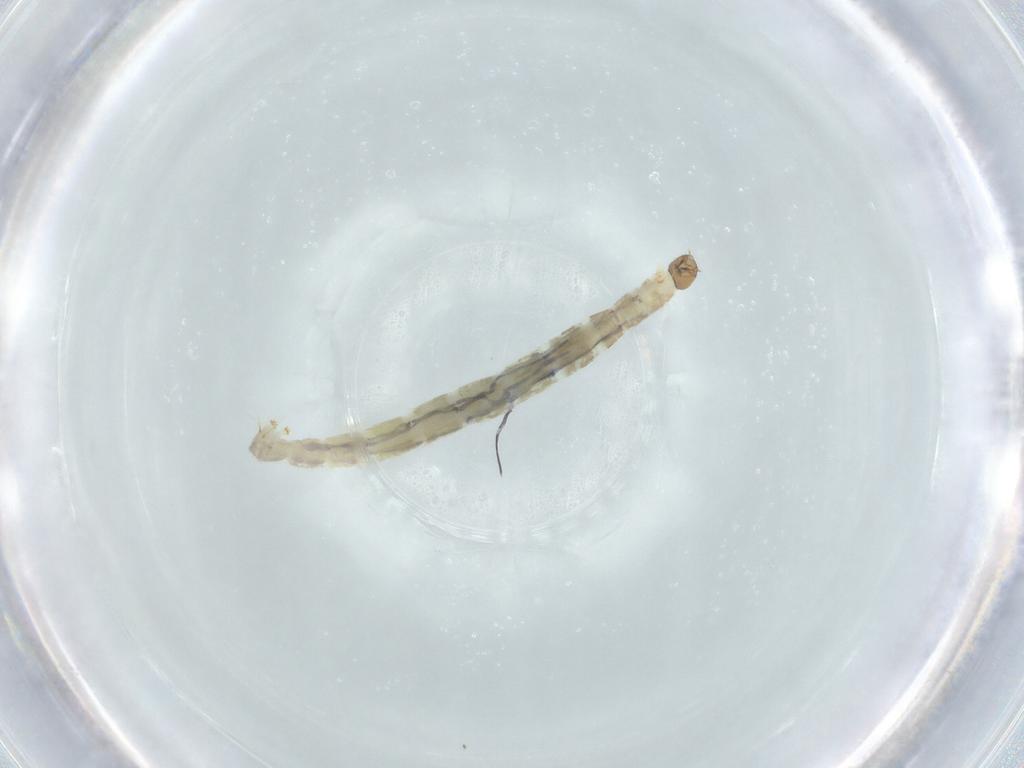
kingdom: Animalia
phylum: Arthropoda
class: Insecta
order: Diptera
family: Chironomidae
